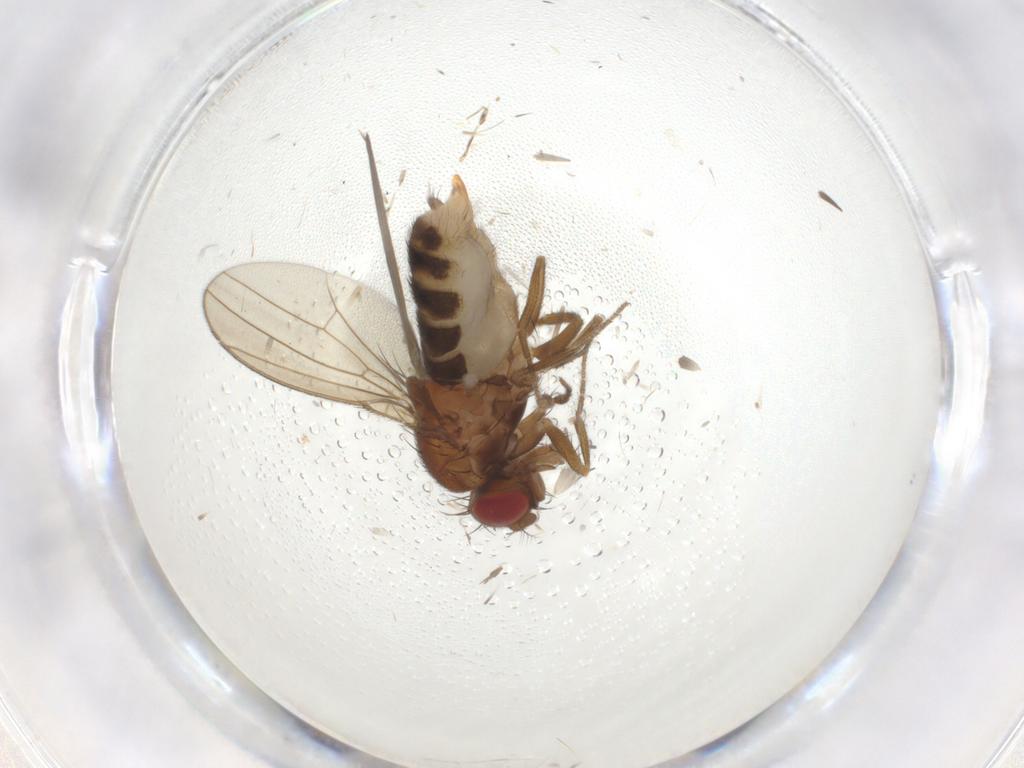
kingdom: Animalia
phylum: Arthropoda
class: Insecta
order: Diptera
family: Drosophilidae
